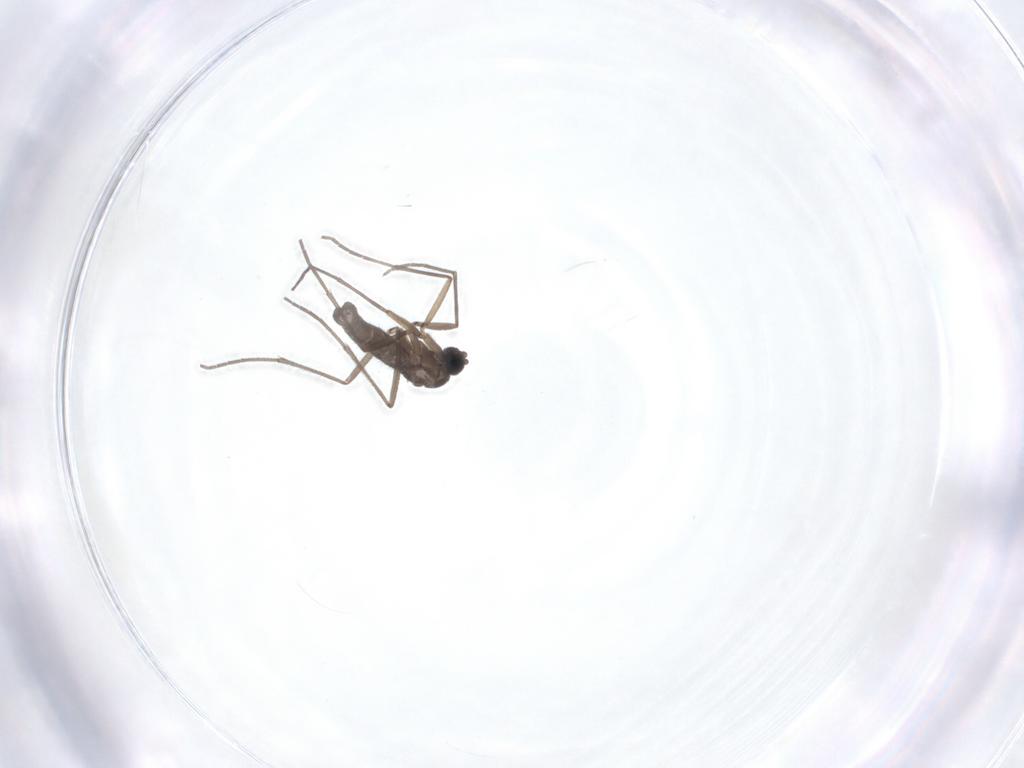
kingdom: Animalia
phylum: Arthropoda
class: Insecta
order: Diptera
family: Sciaridae
